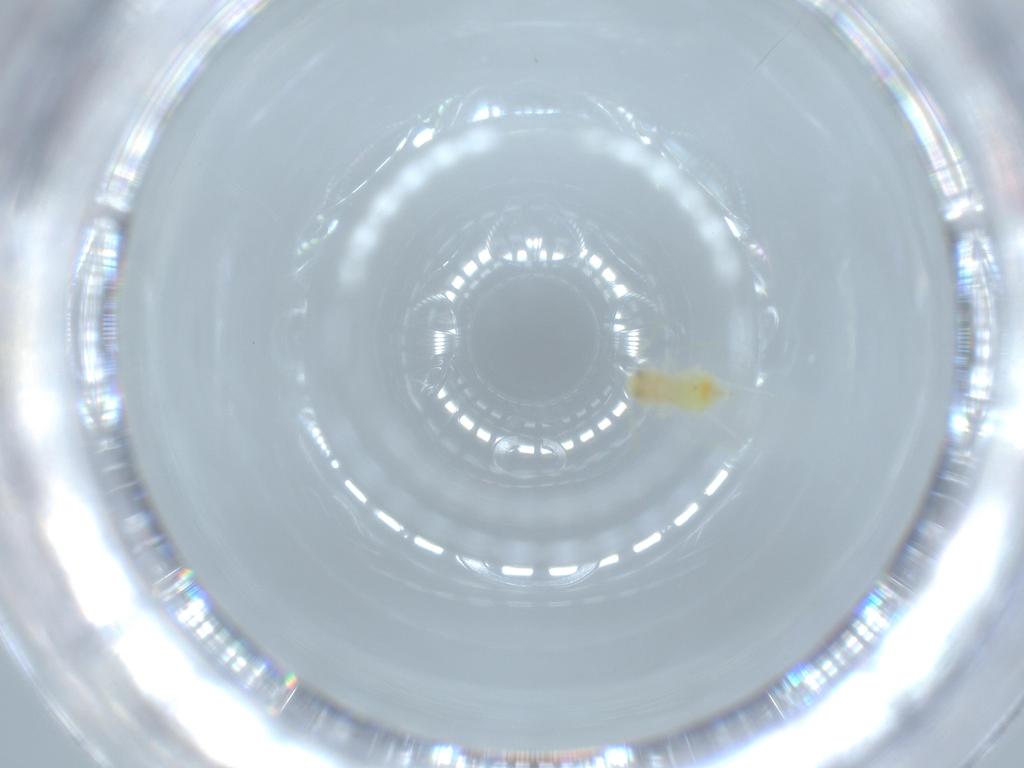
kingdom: Animalia
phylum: Arthropoda
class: Insecta
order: Hemiptera
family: Aleyrodidae
